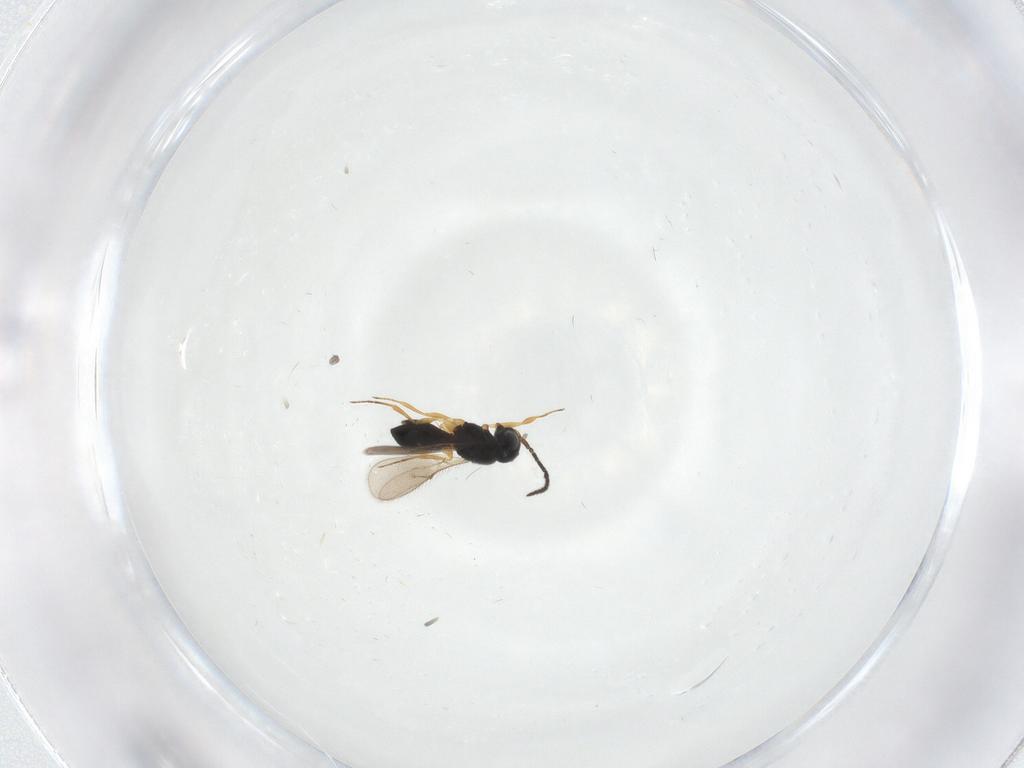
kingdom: Animalia
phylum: Arthropoda
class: Insecta
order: Hymenoptera
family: Scelionidae
